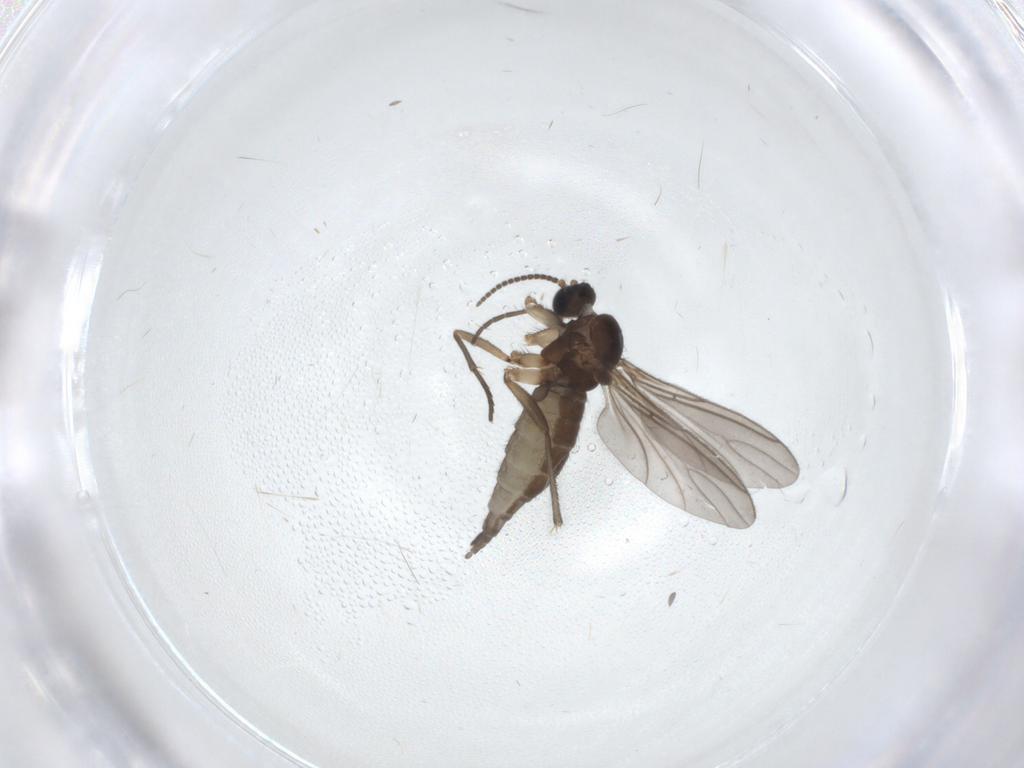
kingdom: Animalia
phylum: Arthropoda
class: Insecta
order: Diptera
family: Sciaridae
